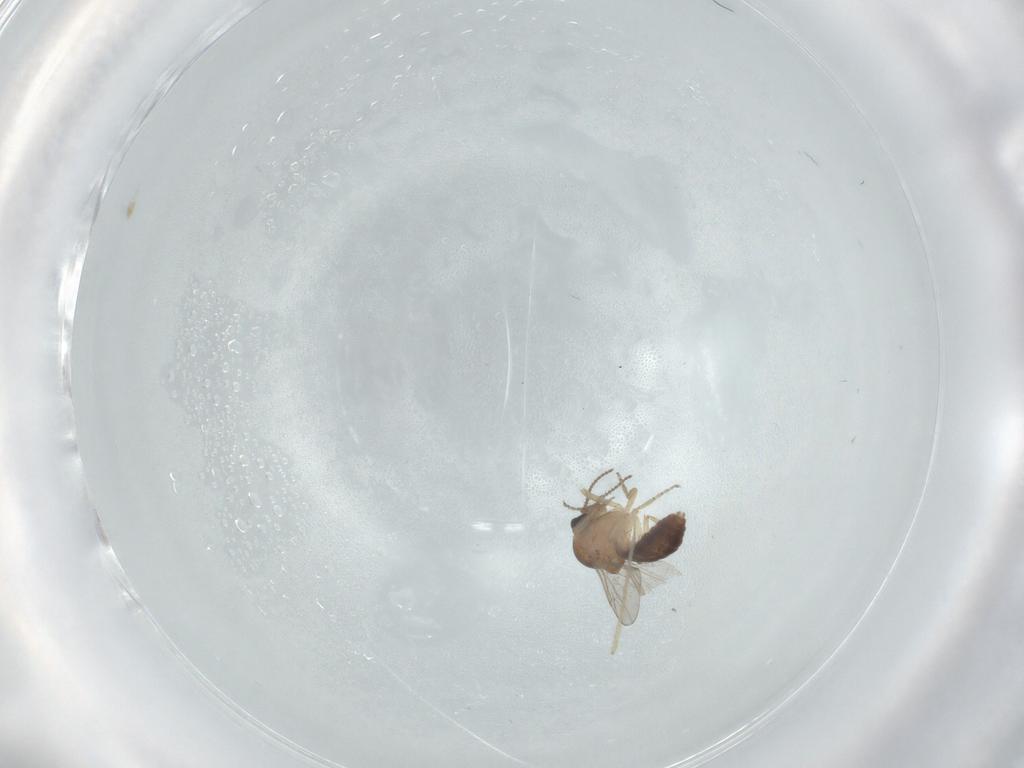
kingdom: Animalia
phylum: Arthropoda
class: Insecta
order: Diptera
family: Ceratopogonidae
